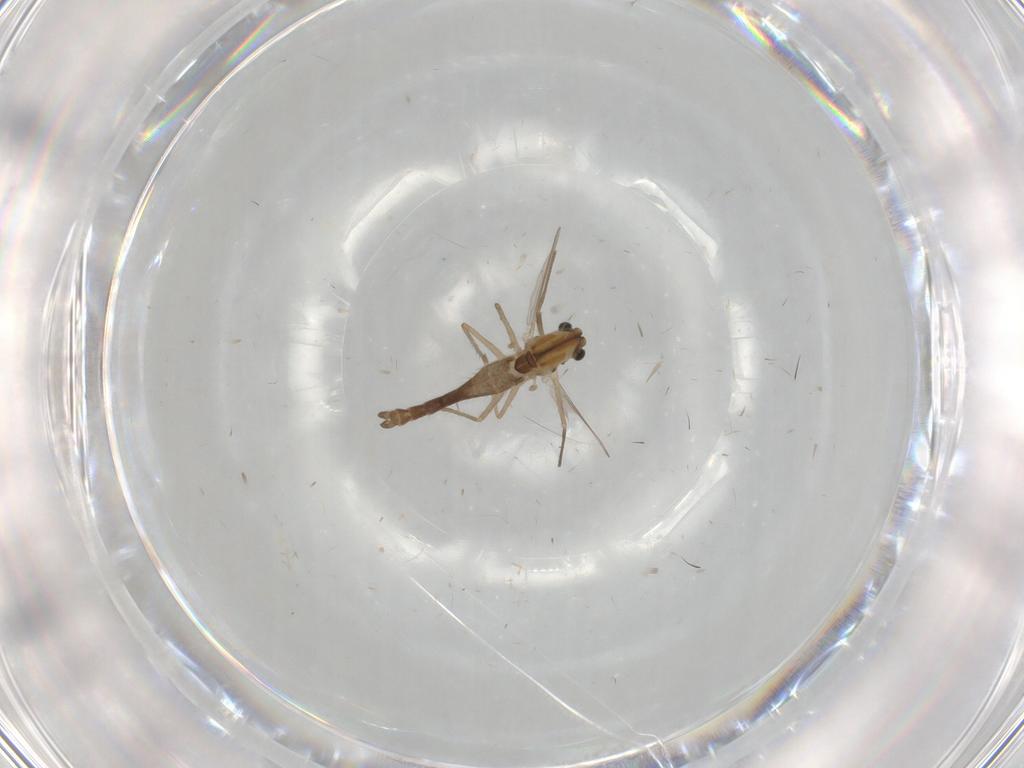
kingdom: Animalia
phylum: Arthropoda
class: Insecta
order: Diptera
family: Chironomidae
